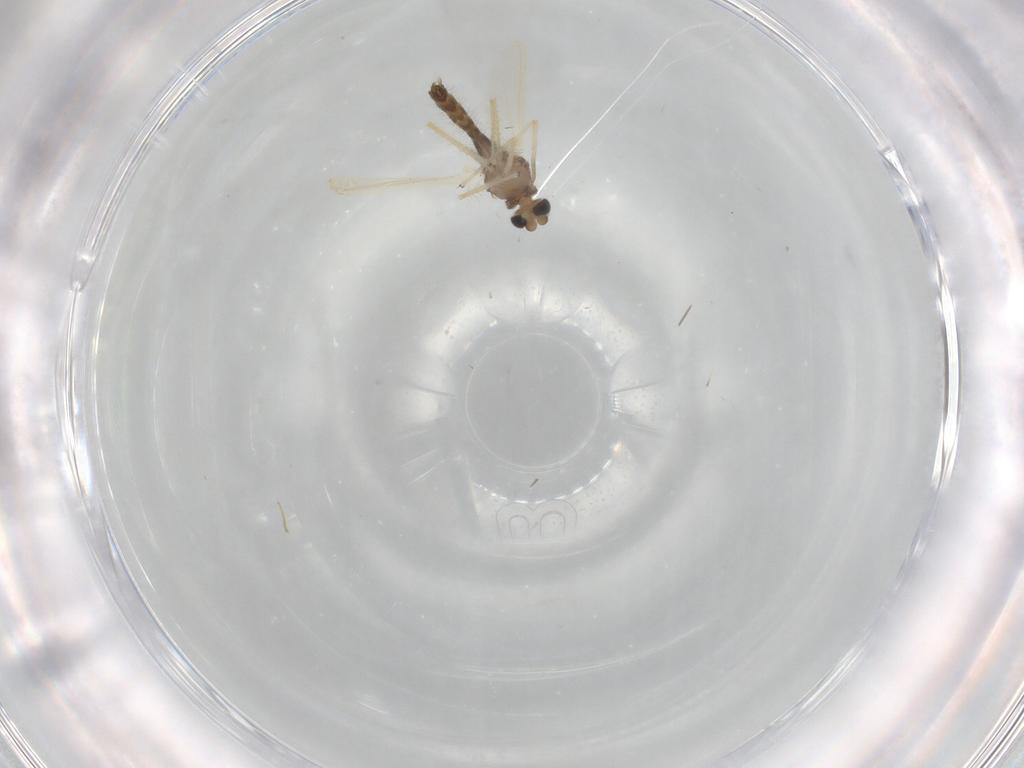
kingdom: Animalia
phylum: Arthropoda
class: Insecta
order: Diptera
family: Chironomidae
